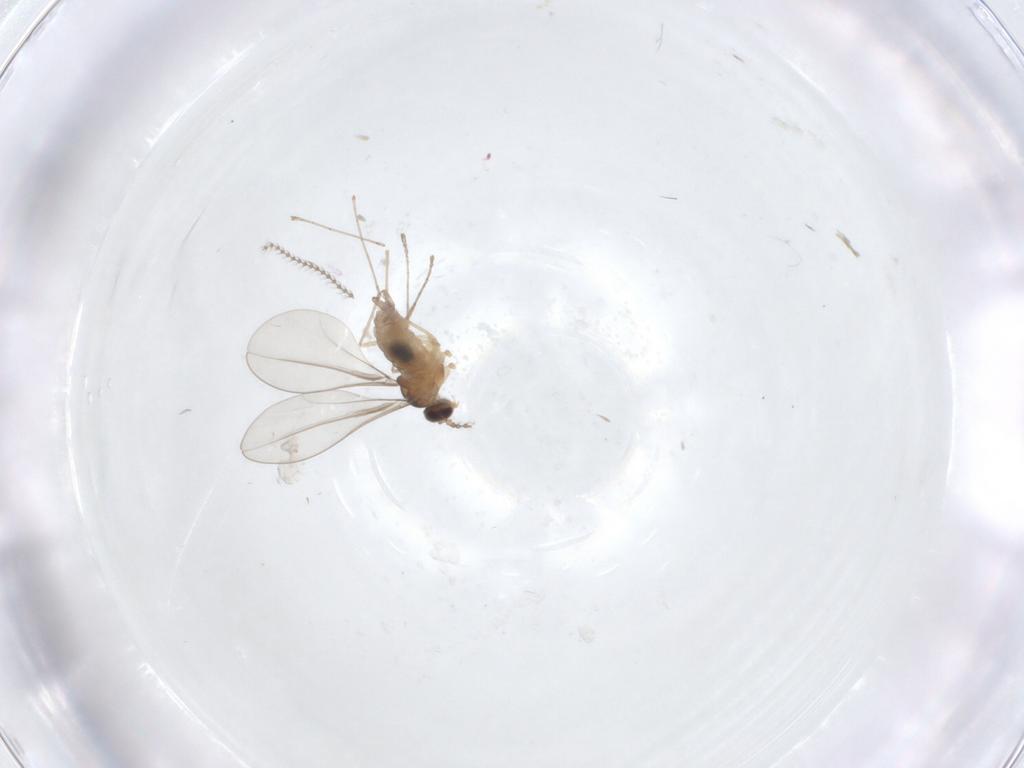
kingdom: Animalia
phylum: Arthropoda
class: Insecta
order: Diptera
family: Cecidomyiidae
